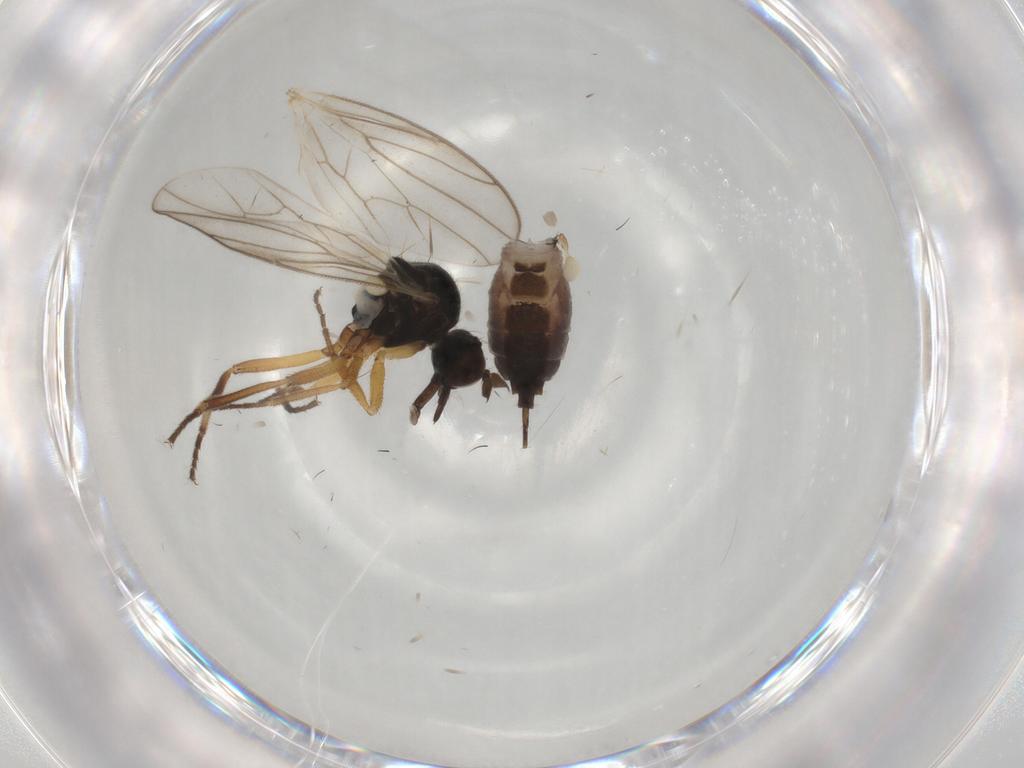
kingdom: Animalia
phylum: Arthropoda
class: Insecta
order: Diptera
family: Hybotidae
